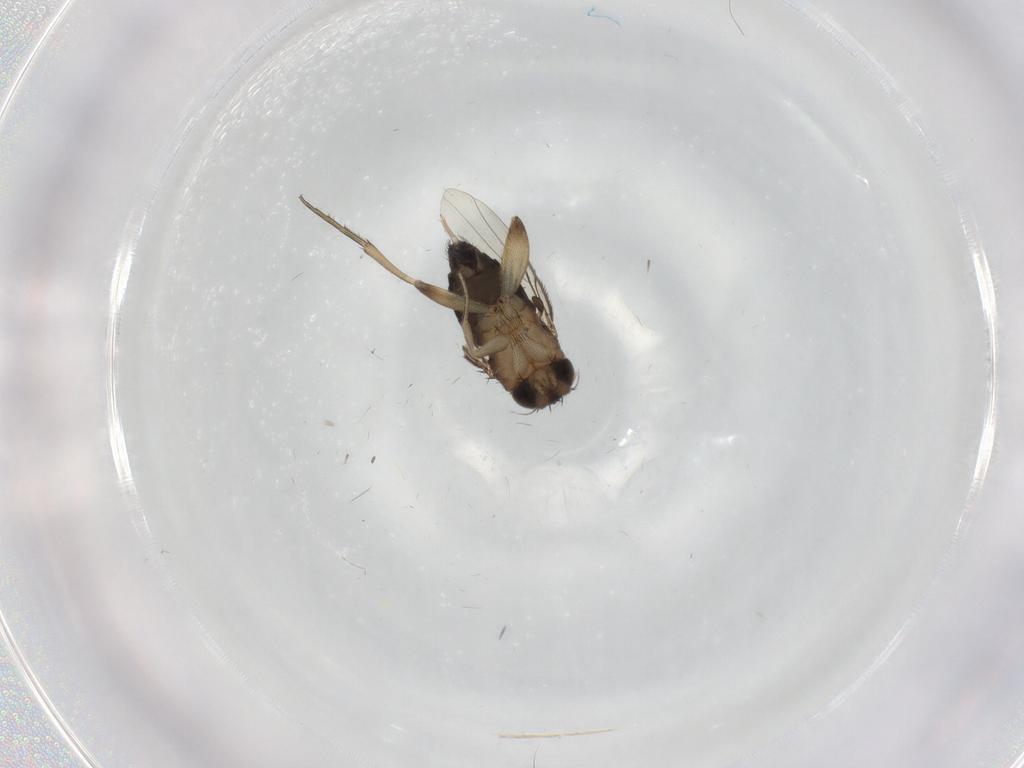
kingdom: Animalia
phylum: Arthropoda
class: Insecta
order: Diptera
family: Phoridae
